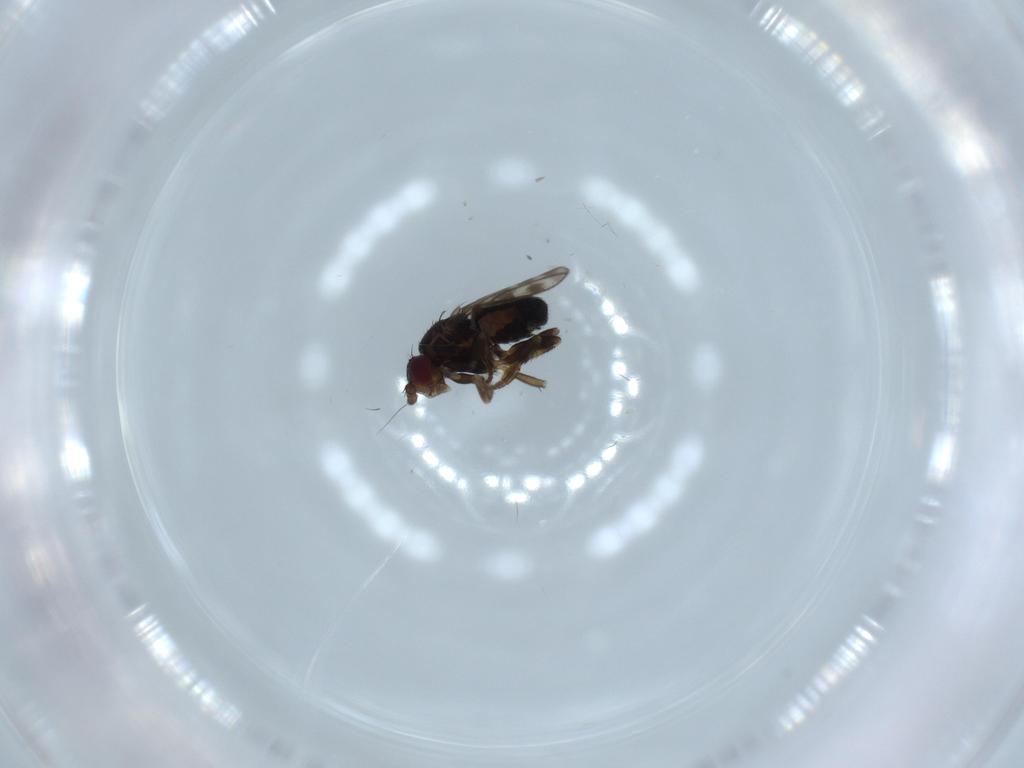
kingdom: Animalia
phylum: Arthropoda
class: Insecta
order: Diptera
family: Sphaeroceridae
